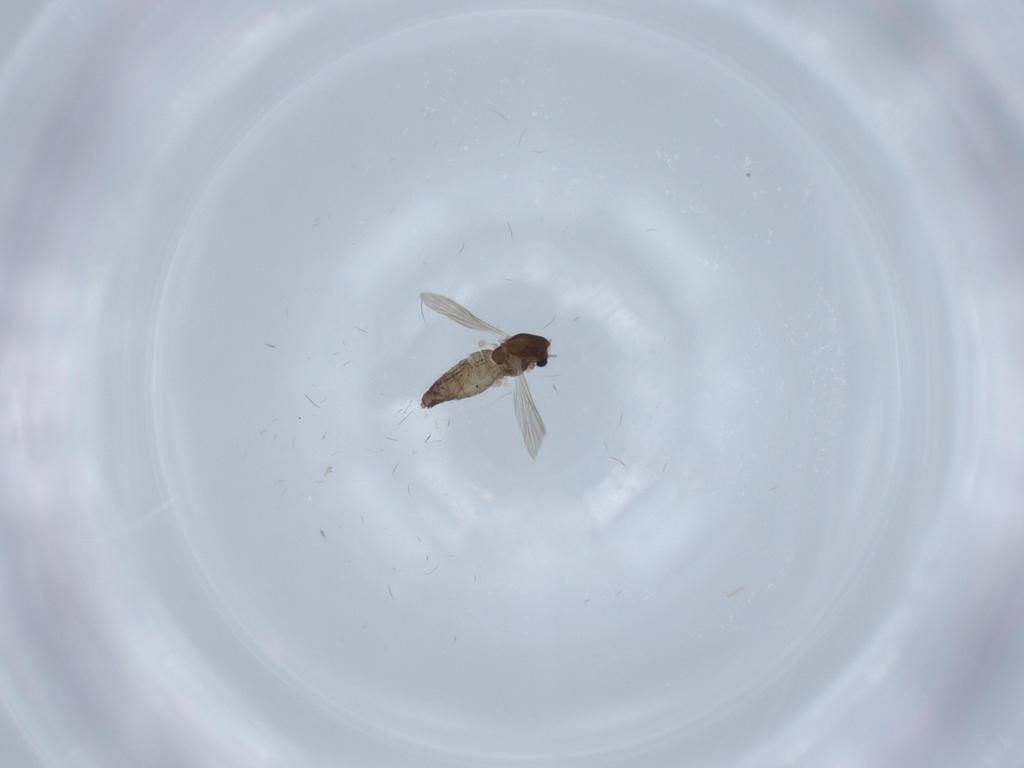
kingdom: Animalia
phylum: Arthropoda
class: Insecta
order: Diptera
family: Chironomidae
